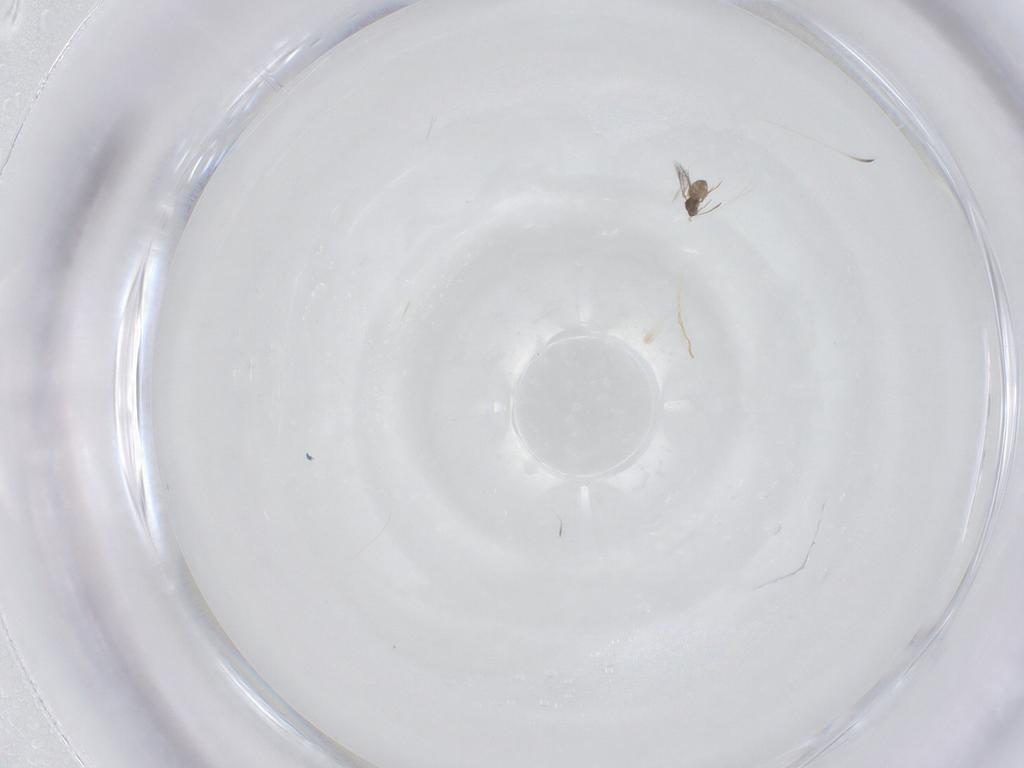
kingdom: Animalia
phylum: Arthropoda
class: Insecta
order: Hymenoptera
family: Mymaridae
